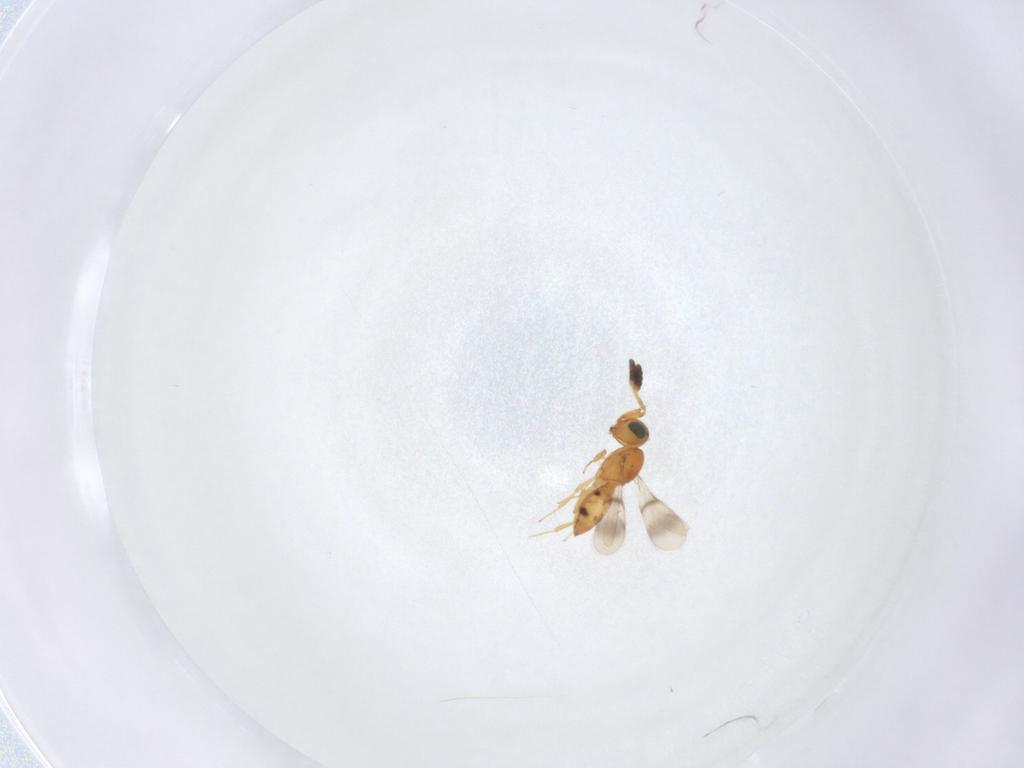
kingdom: Animalia
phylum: Arthropoda
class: Insecta
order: Hymenoptera
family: Scelionidae
